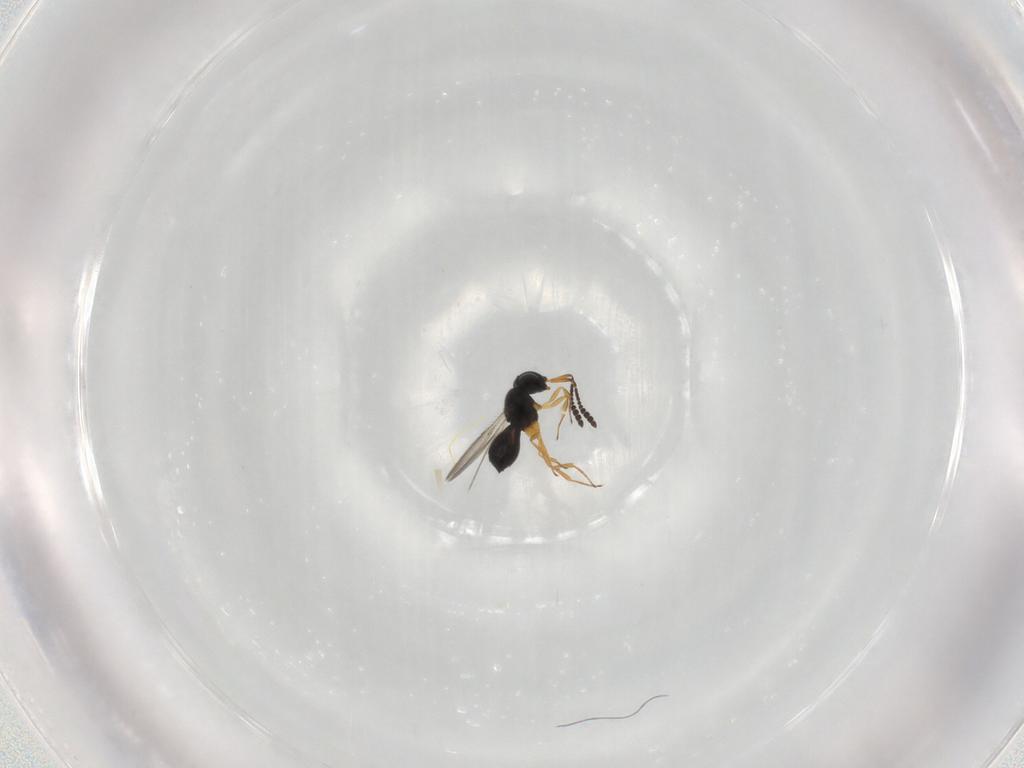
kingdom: Animalia
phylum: Arthropoda
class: Insecta
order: Hymenoptera
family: Scelionidae
